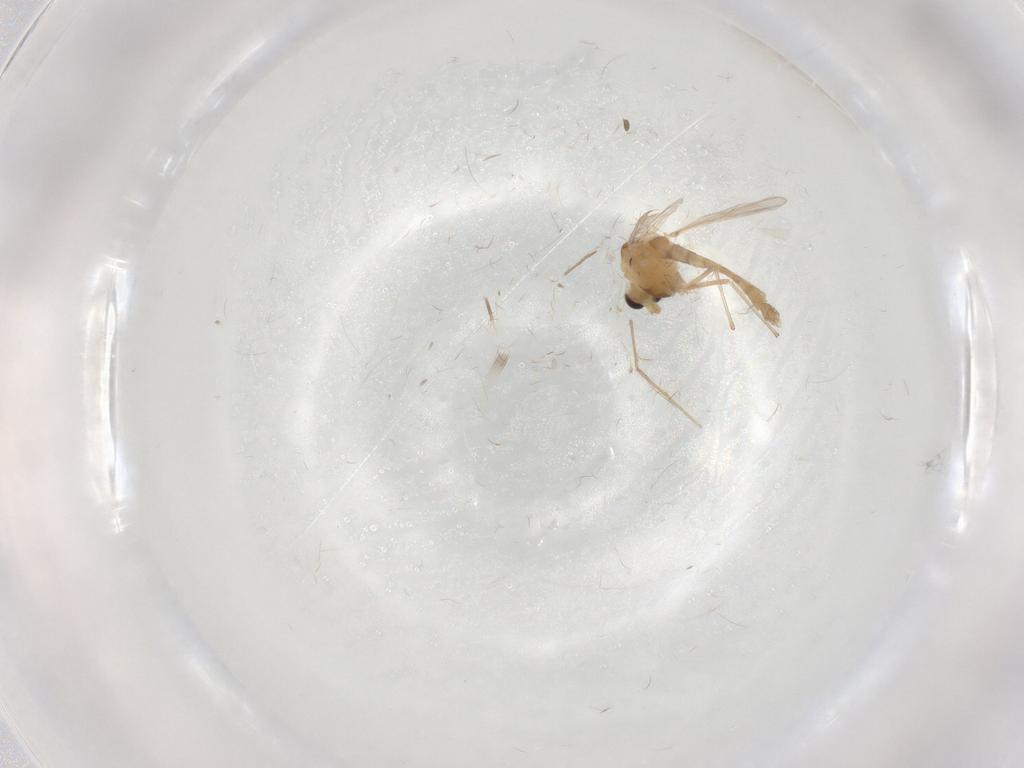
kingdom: Animalia
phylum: Arthropoda
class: Insecta
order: Diptera
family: Chironomidae
